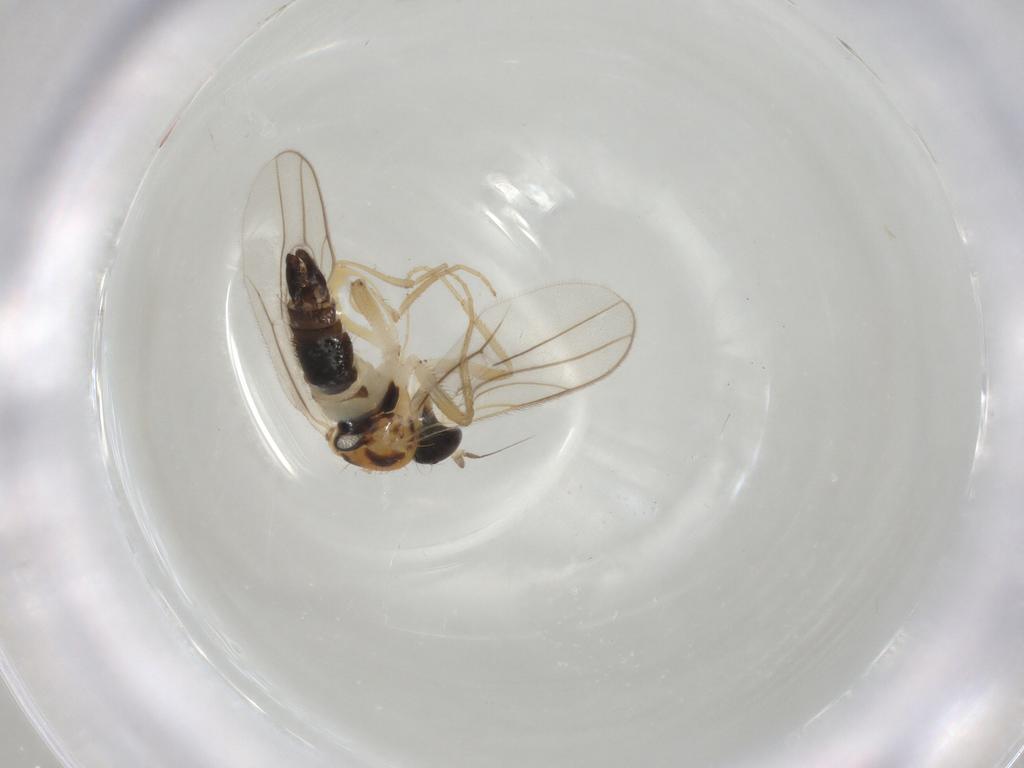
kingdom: Animalia
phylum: Arthropoda
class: Insecta
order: Diptera
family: Hybotidae
